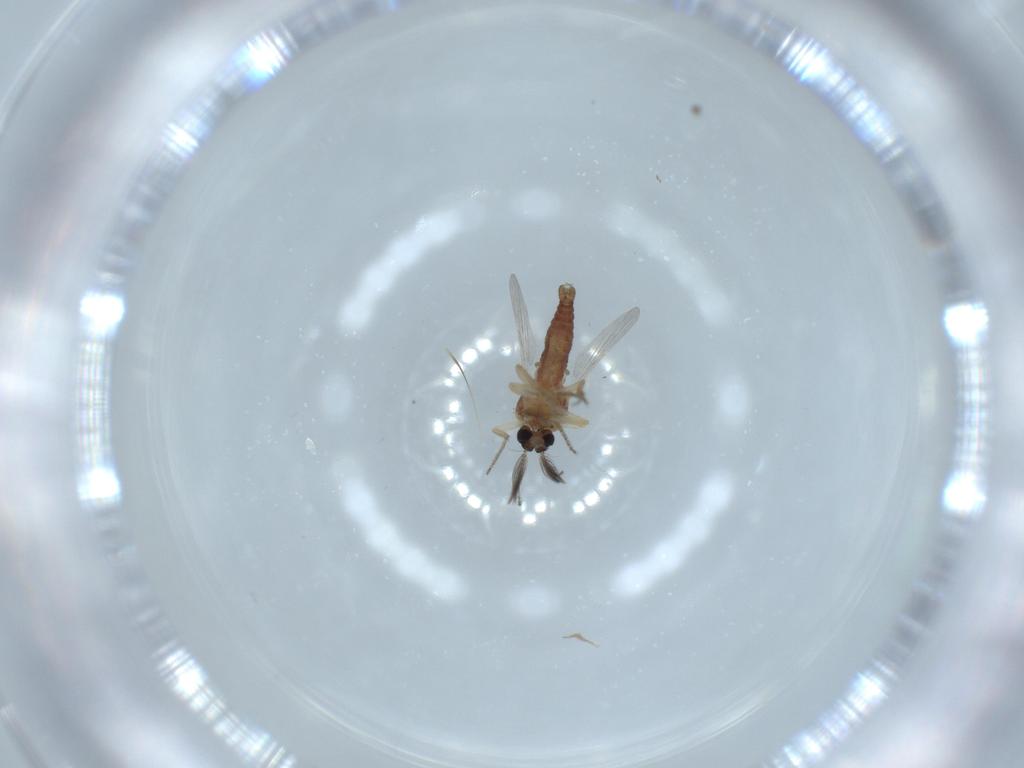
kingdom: Animalia
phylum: Arthropoda
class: Insecta
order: Diptera
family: Ceratopogonidae
